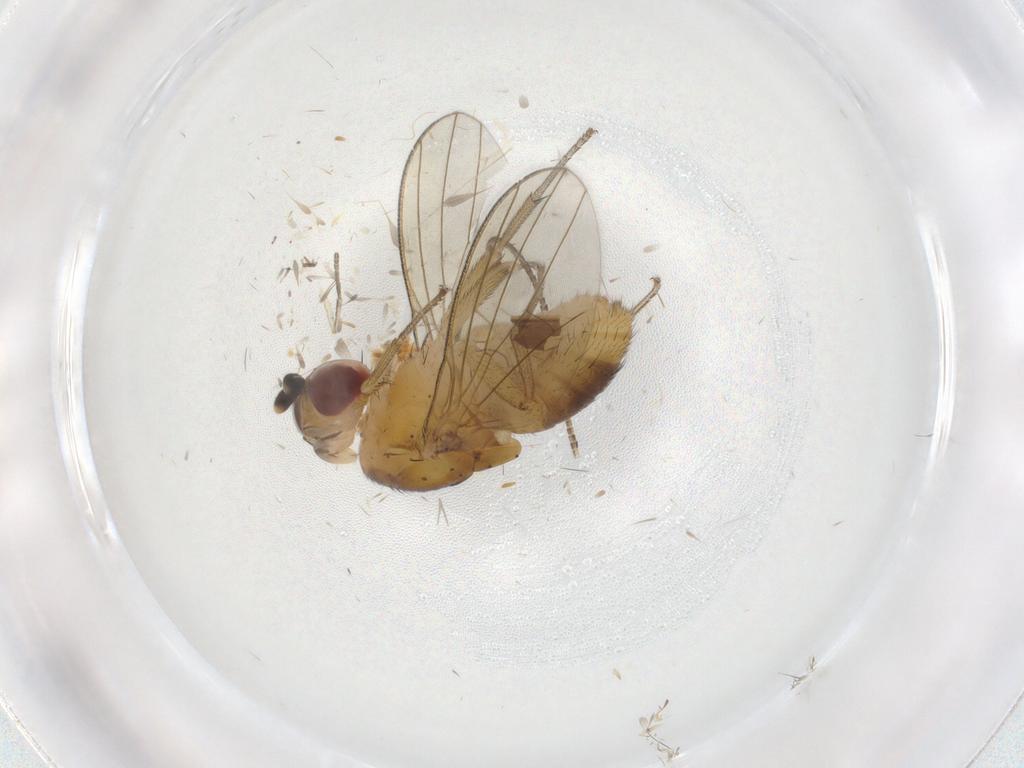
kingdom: Animalia
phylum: Arthropoda
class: Insecta
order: Diptera
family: Lauxaniidae
